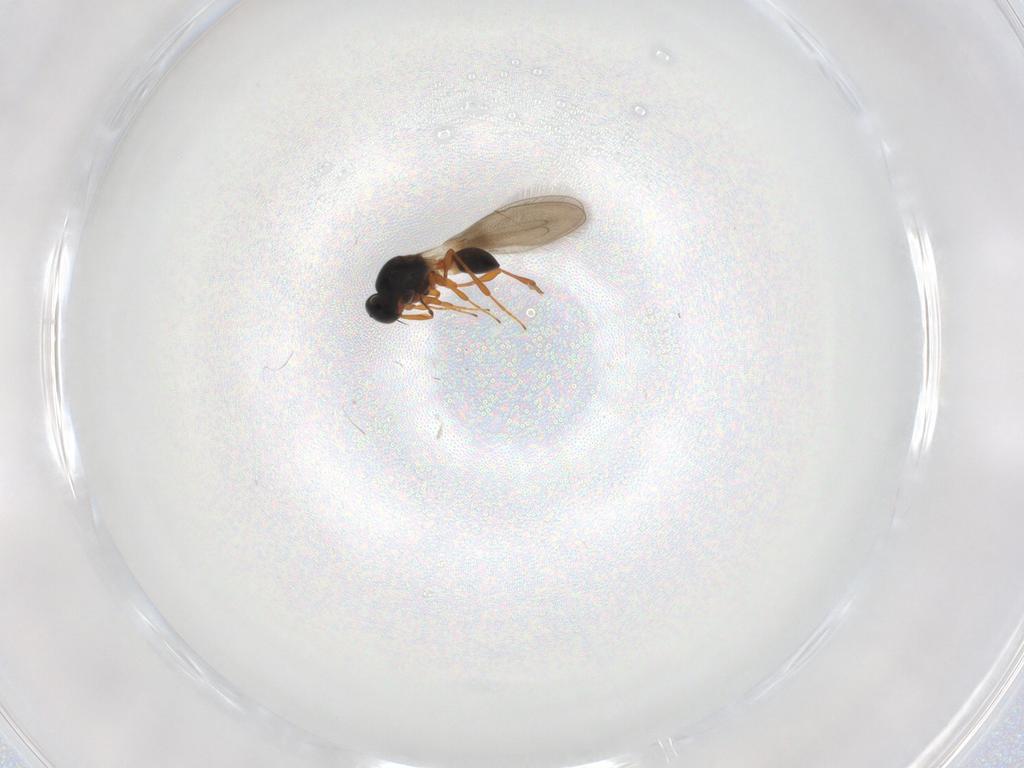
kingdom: Animalia
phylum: Arthropoda
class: Insecta
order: Hymenoptera
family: Platygastridae
